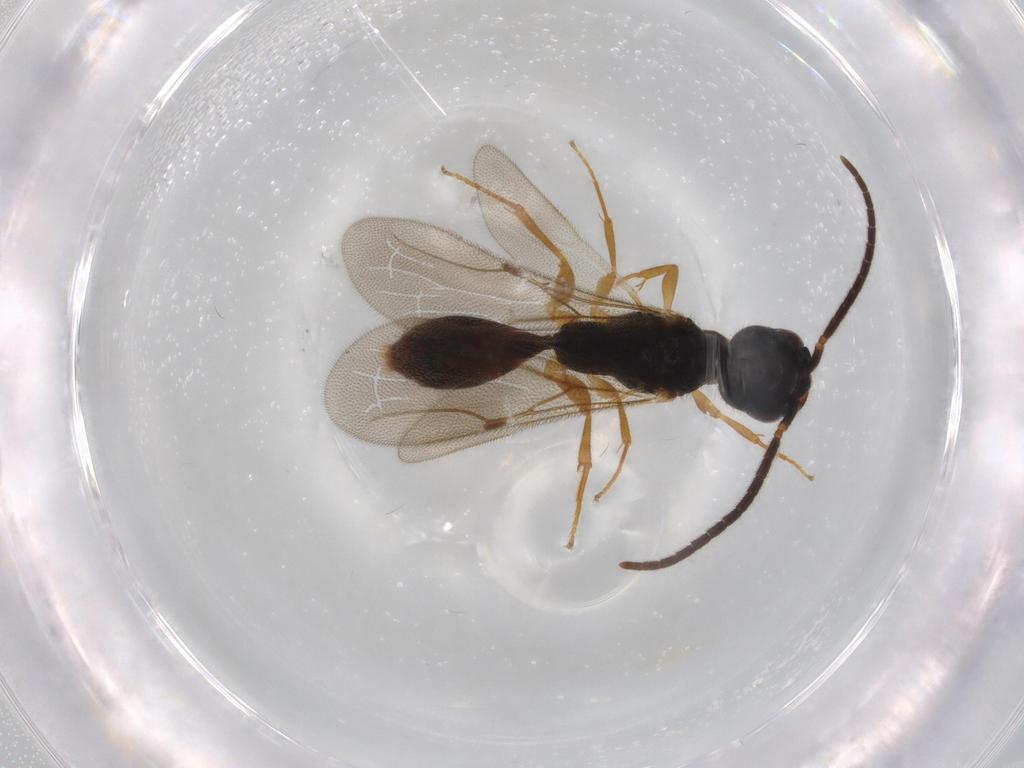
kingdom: Animalia
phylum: Arthropoda
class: Insecta
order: Hymenoptera
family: Bethylidae
